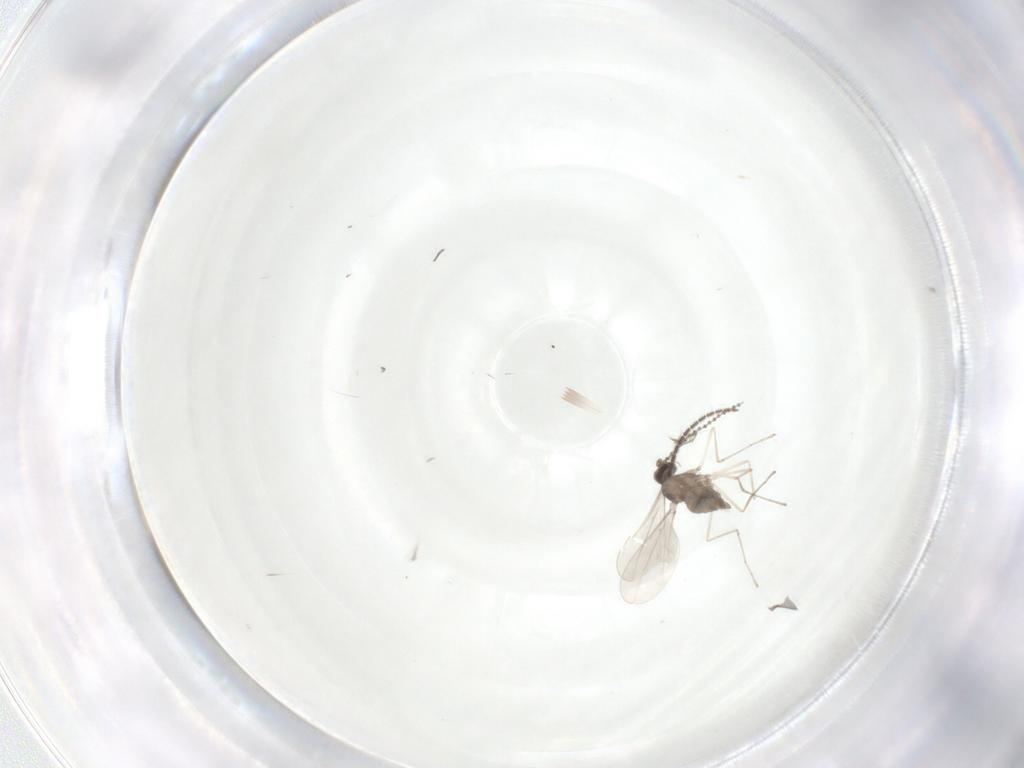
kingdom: Animalia
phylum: Arthropoda
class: Insecta
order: Diptera
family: Cecidomyiidae
